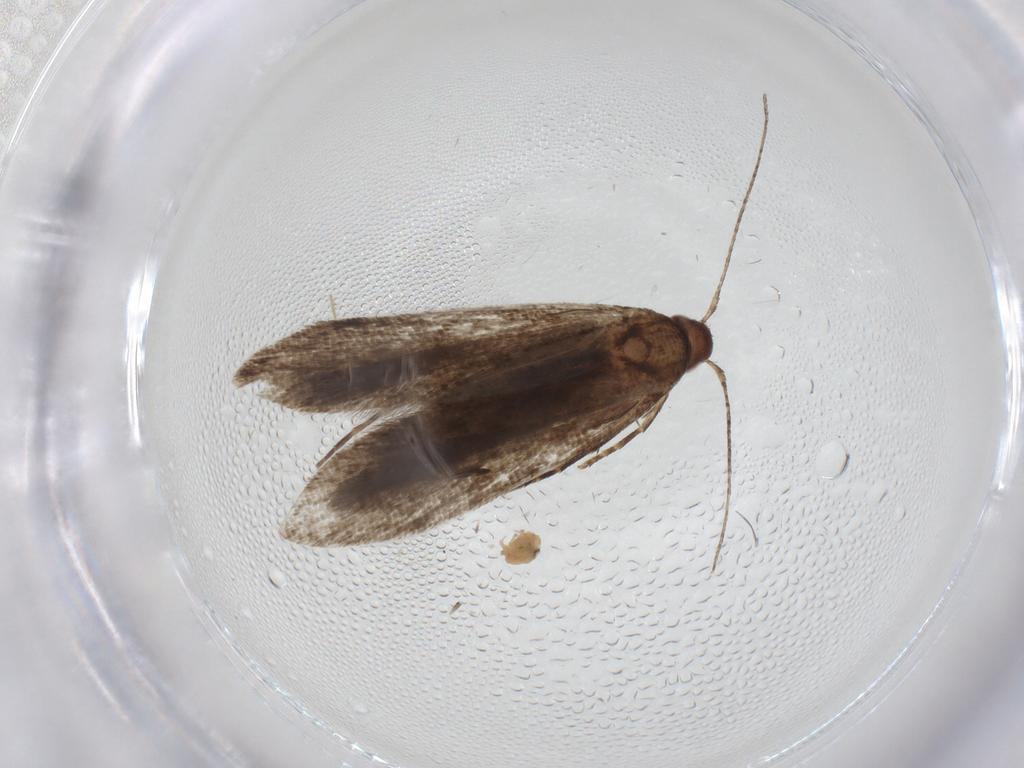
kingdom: Animalia
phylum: Arthropoda
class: Insecta
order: Lepidoptera
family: Gelechiidae
